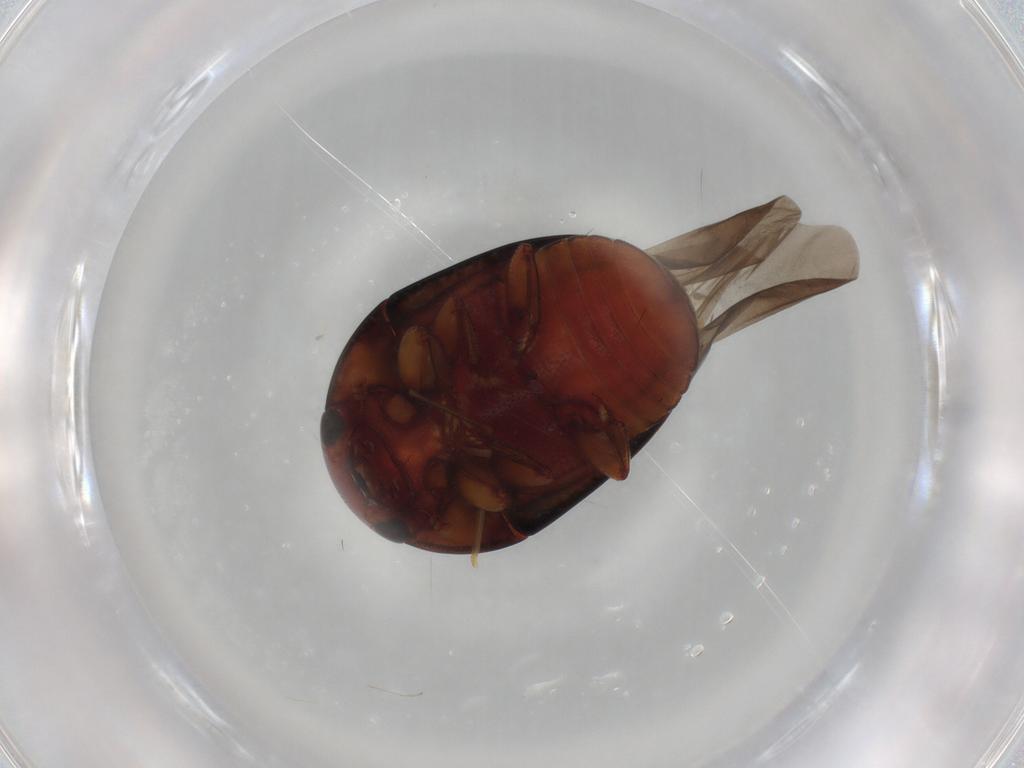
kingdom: Animalia
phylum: Arthropoda
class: Insecta
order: Coleoptera
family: Nitidulidae
